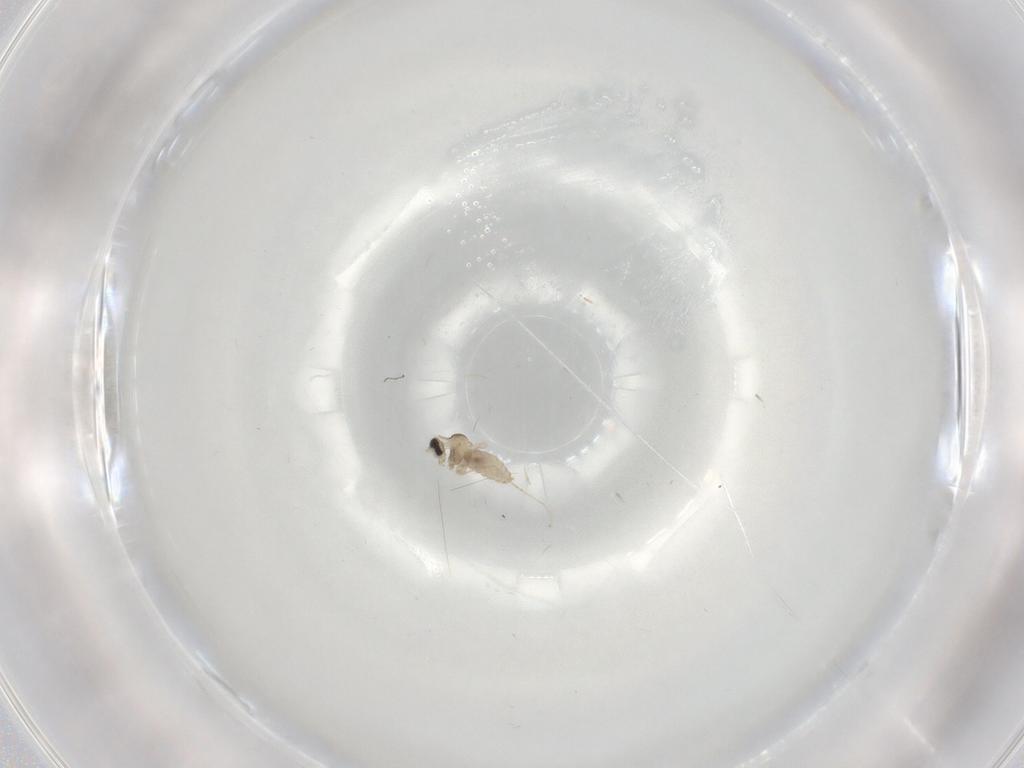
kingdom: Animalia
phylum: Arthropoda
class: Insecta
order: Diptera
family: Cecidomyiidae
